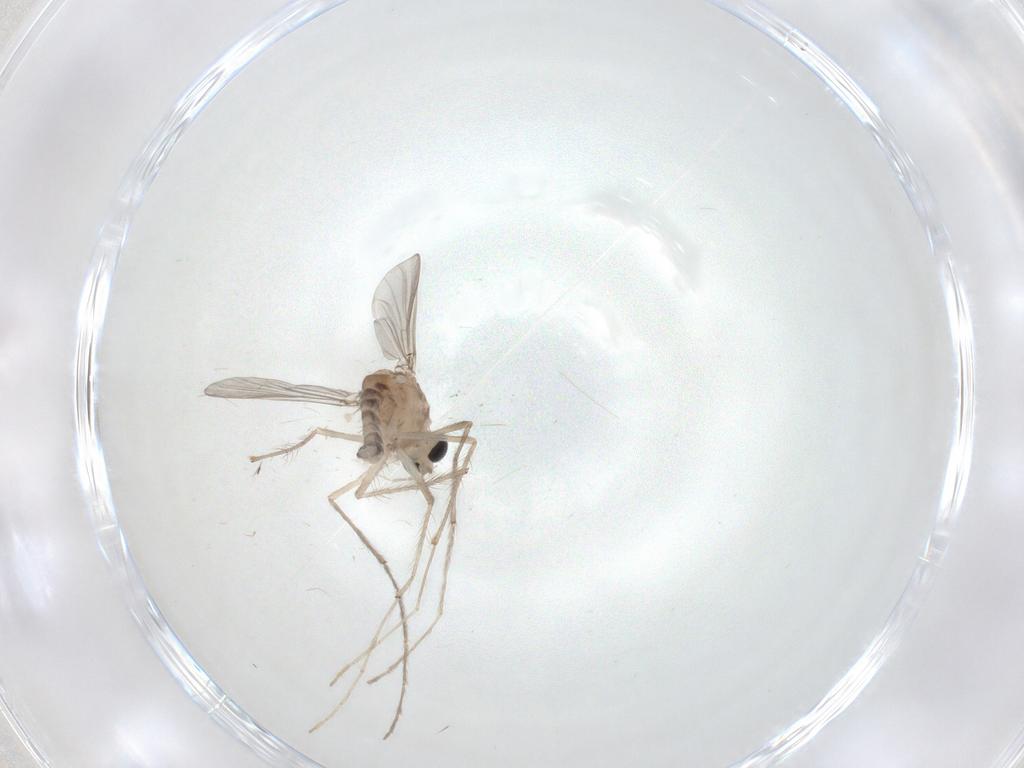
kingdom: Animalia
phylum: Arthropoda
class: Insecta
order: Diptera
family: Chironomidae
